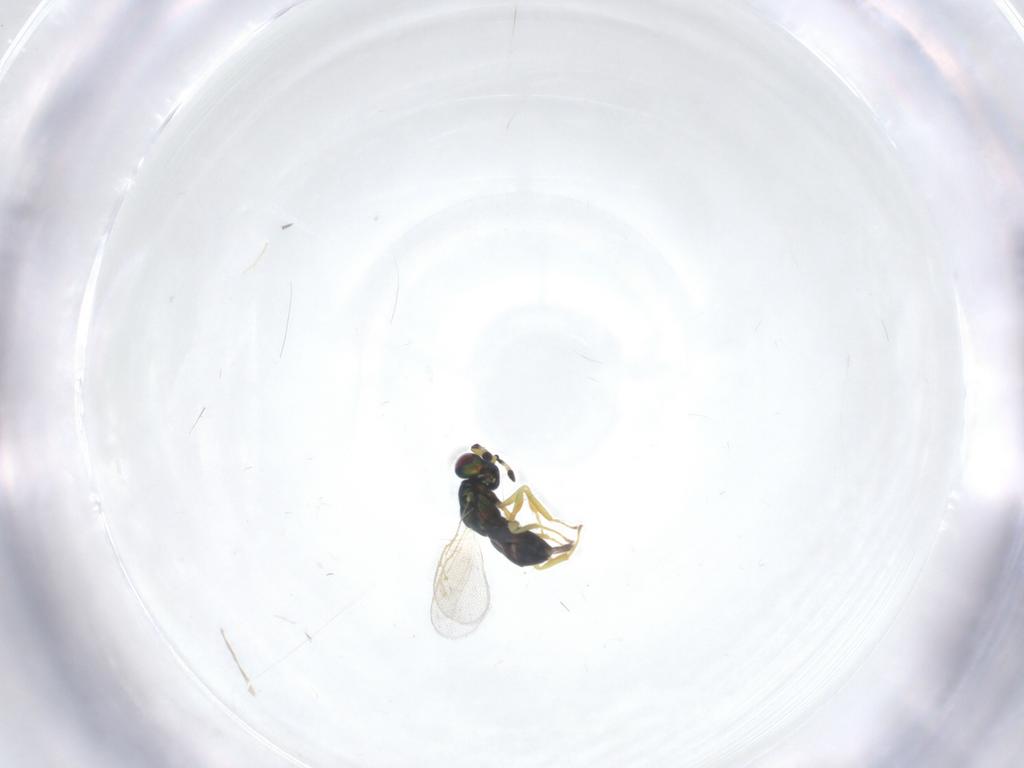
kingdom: Animalia
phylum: Arthropoda
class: Insecta
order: Hymenoptera
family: Pteromalidae
